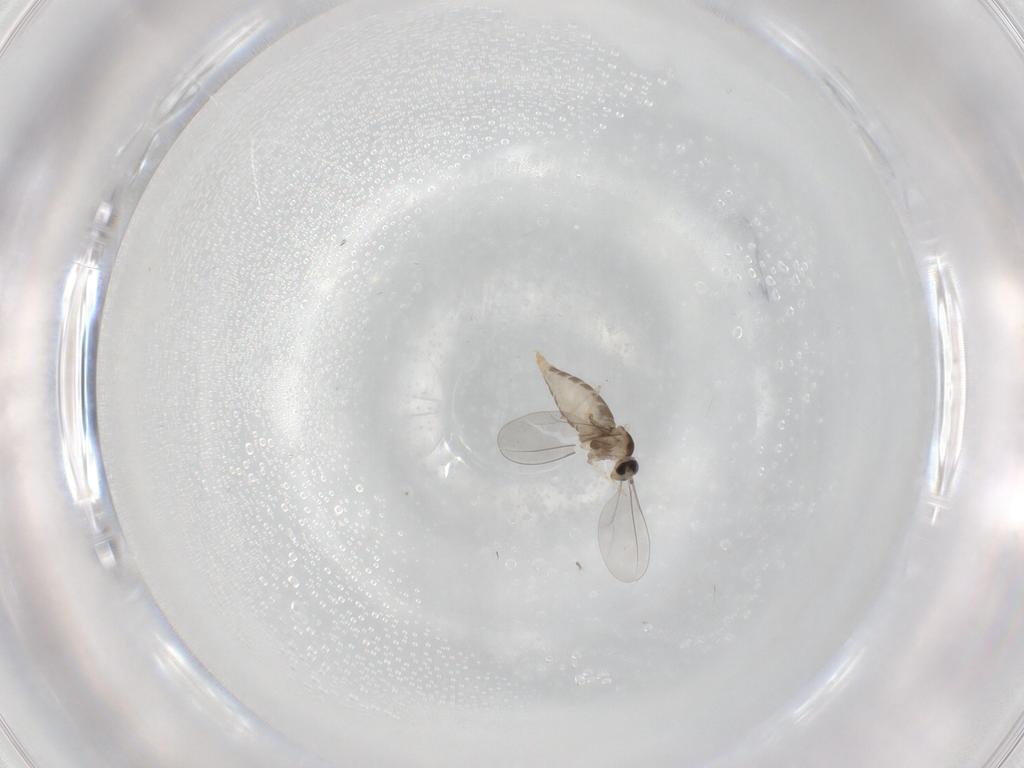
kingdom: Animalia
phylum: Arthropoda
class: Insecta
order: Diptera
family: Cecidomyiidae
